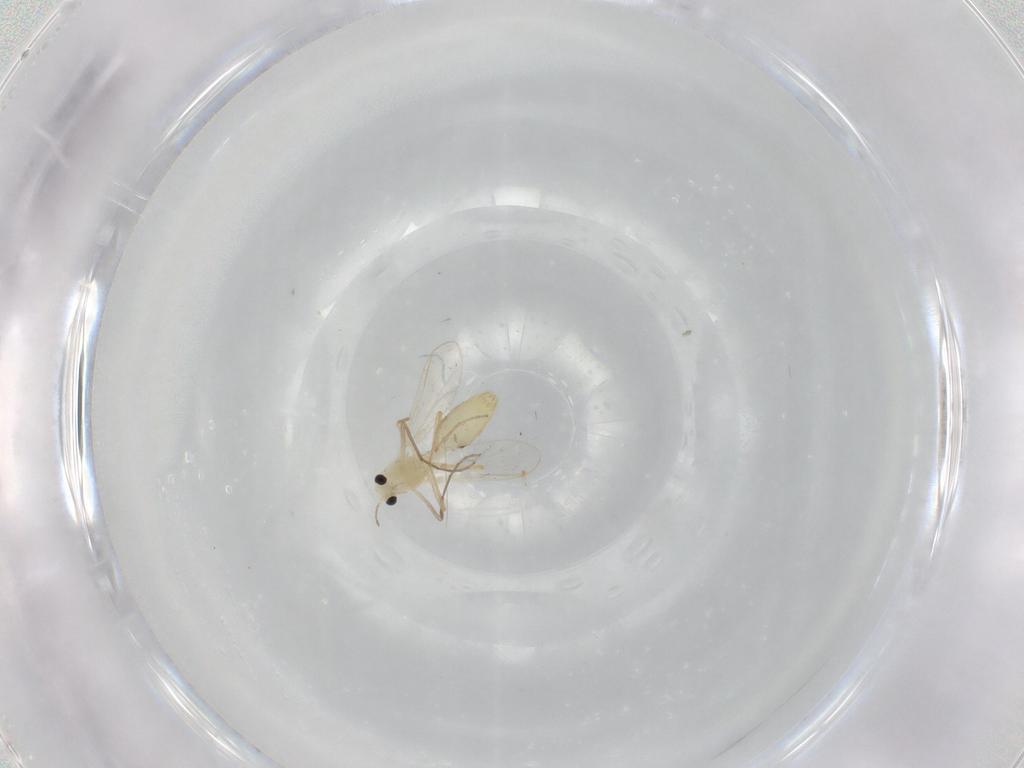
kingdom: Animalia
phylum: Arthropoda
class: Insecta
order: Diptera
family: Chironomidae
